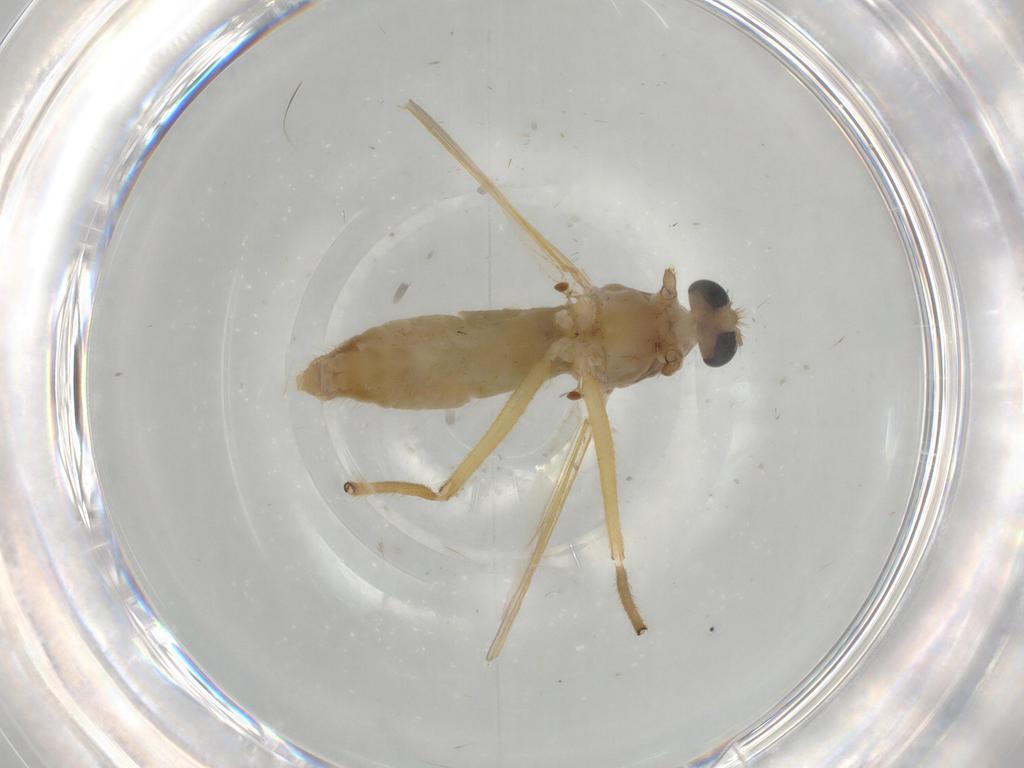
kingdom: Animalia
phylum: Arthropoda
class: Insecta
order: Diptera
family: Chironomidae
